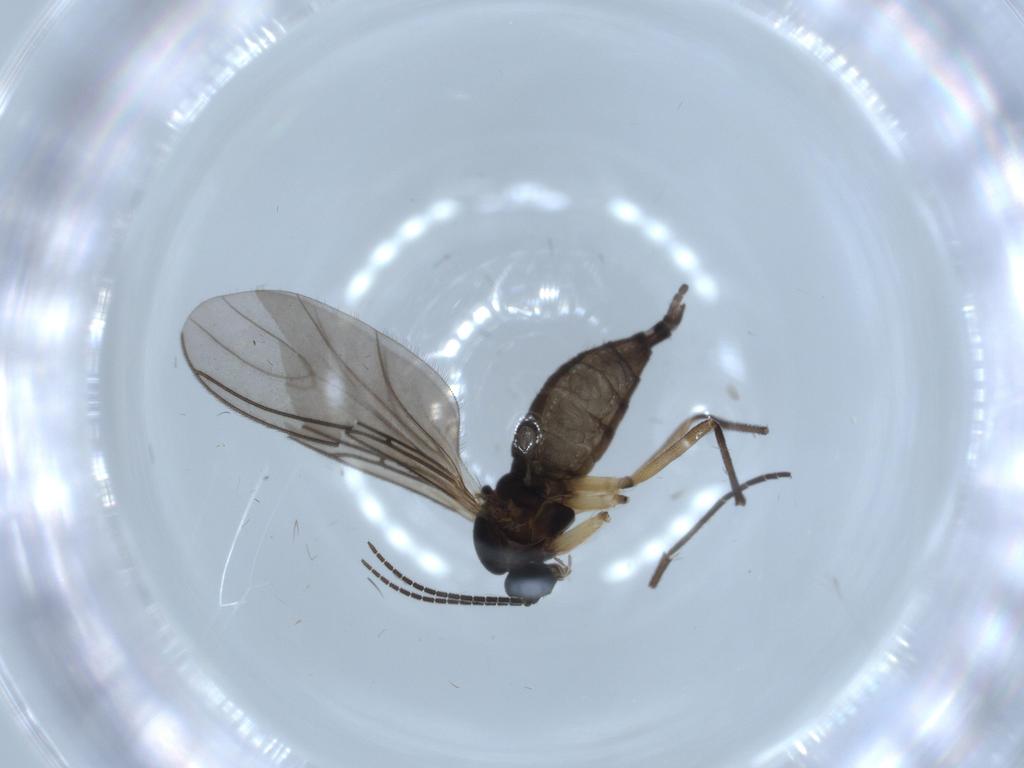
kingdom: Animalia
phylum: Arthropoda
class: Insecta
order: Diptera
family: Sciaridae
